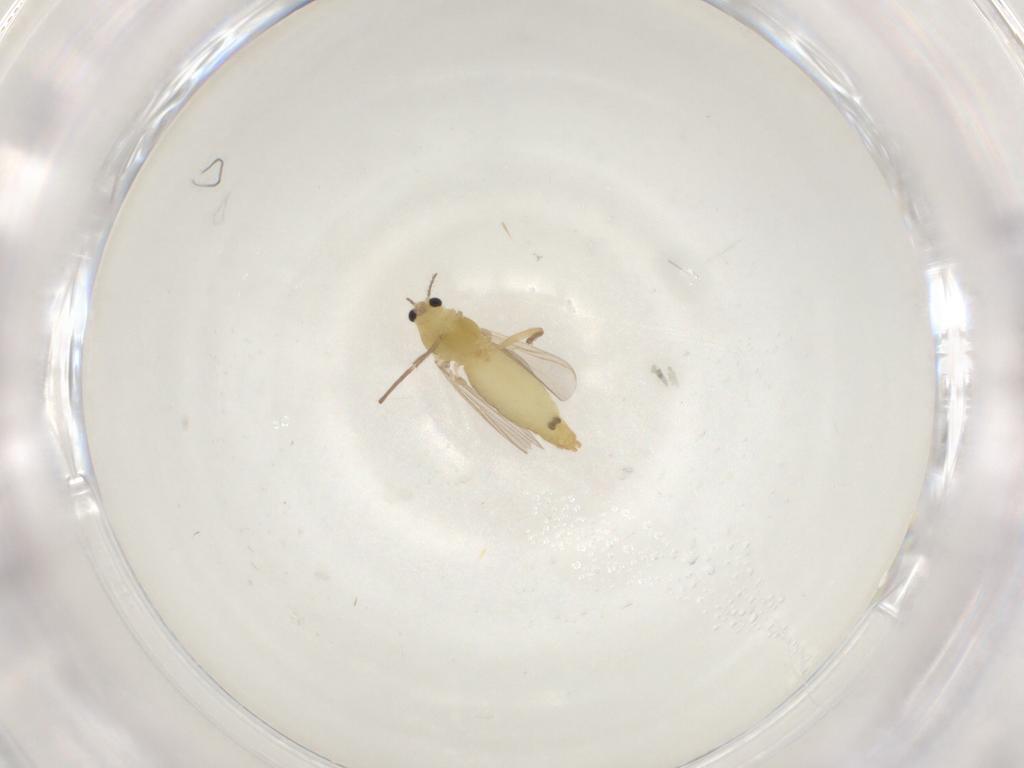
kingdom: Animalia
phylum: Arthropoda
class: Insecta
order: Diptera
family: Chironomidae
